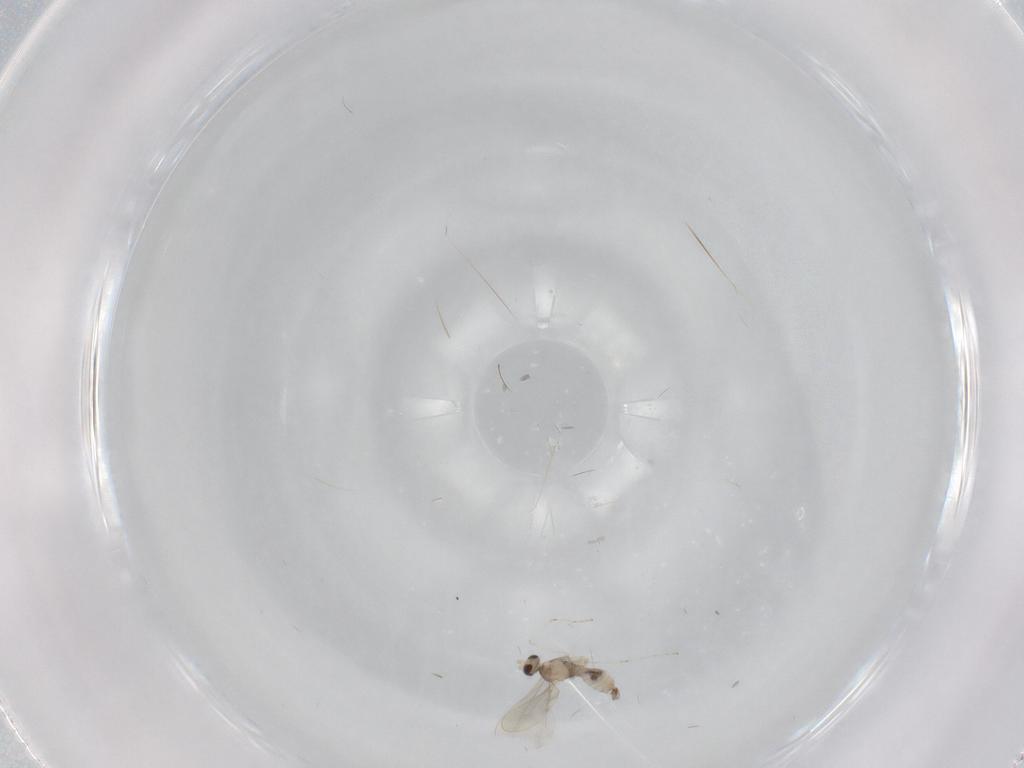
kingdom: Animalia
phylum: Arthropoda
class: Insecta
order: Diptera
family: Cecidomyiidae
